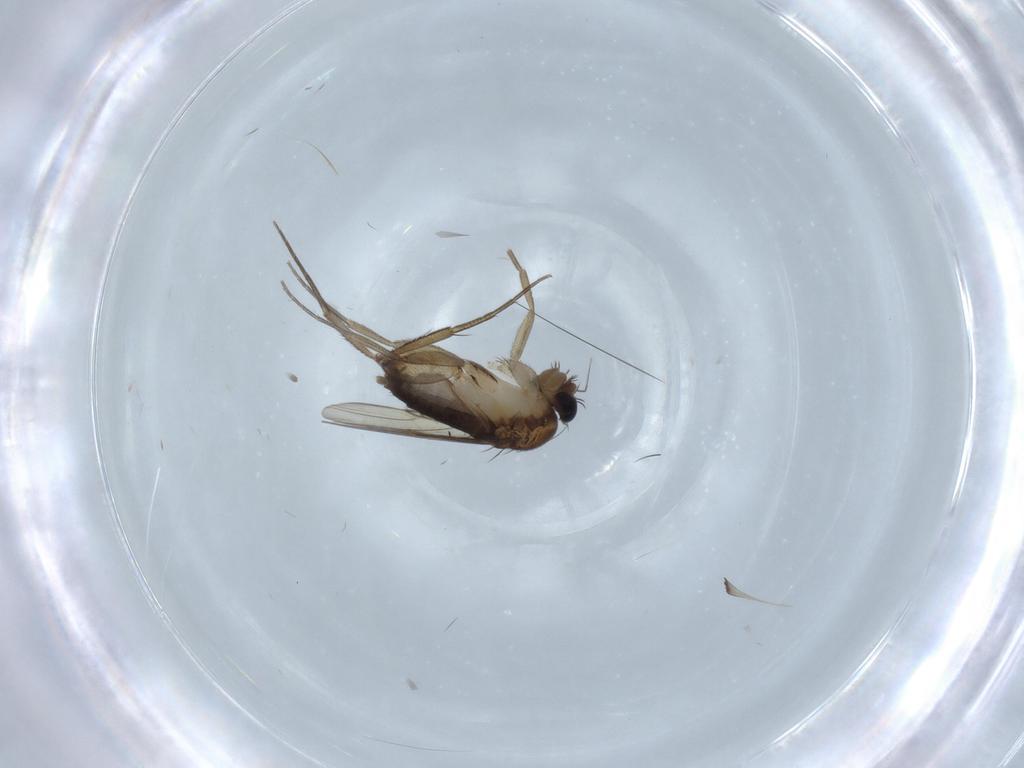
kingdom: Animalia
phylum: Arthropoda
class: Insecta
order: Diptera
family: Phoridae
